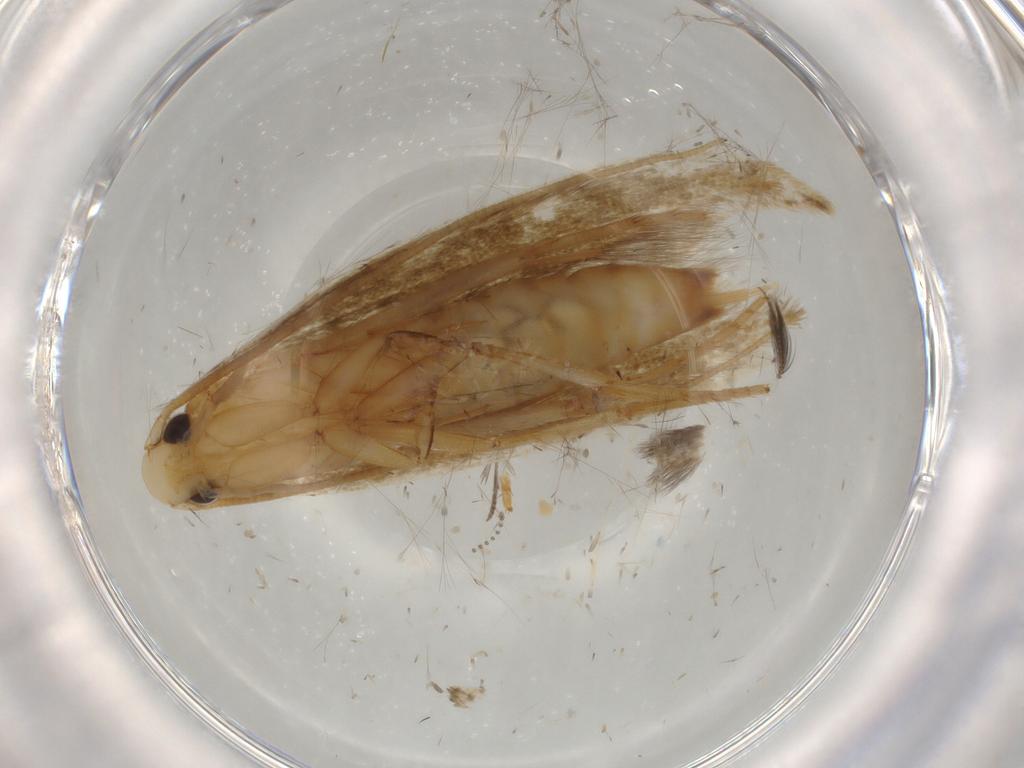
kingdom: Animalia
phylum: Arthropoda
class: Insecta
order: Lepidoptera
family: Tineidae
